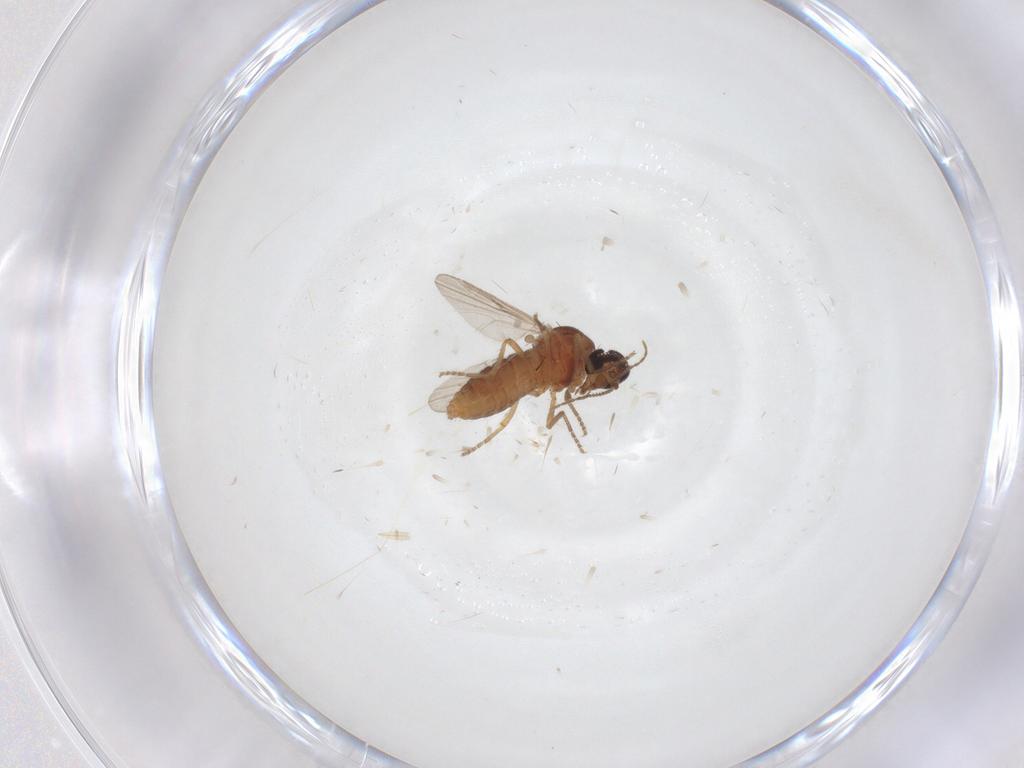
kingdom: Animalia
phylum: Arthropoda
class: Insecta
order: Diptera
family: Ceratopogonidae
